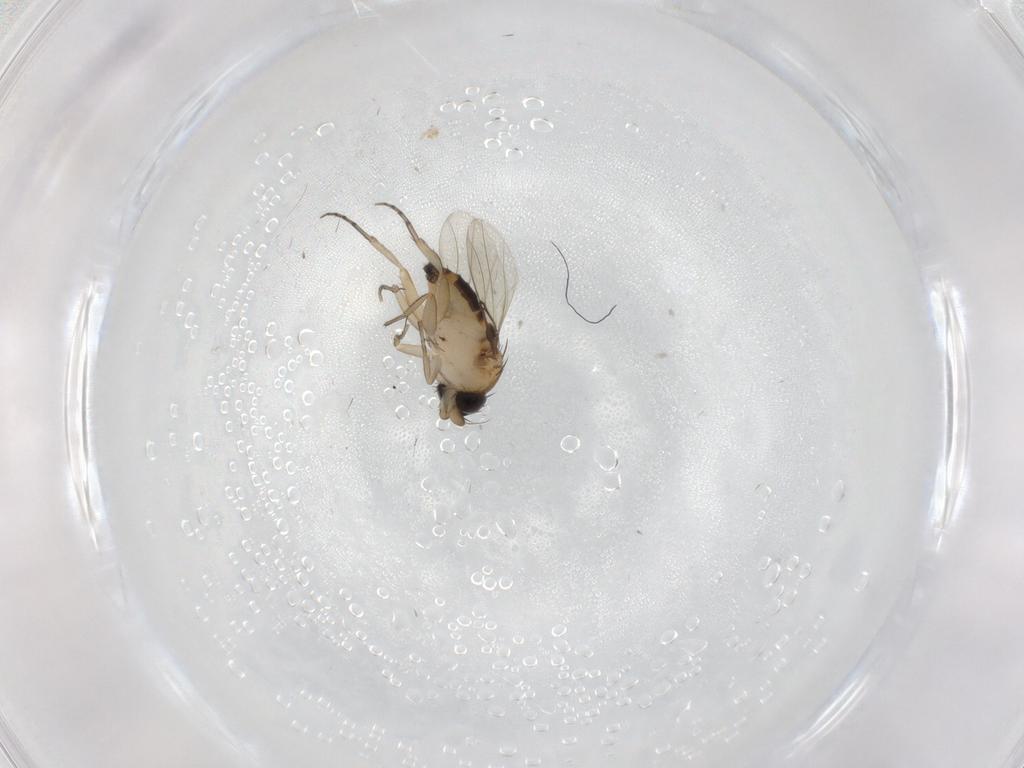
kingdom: Animalia
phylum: Arthropoda
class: Insecta
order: Diptera
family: Phoridae
